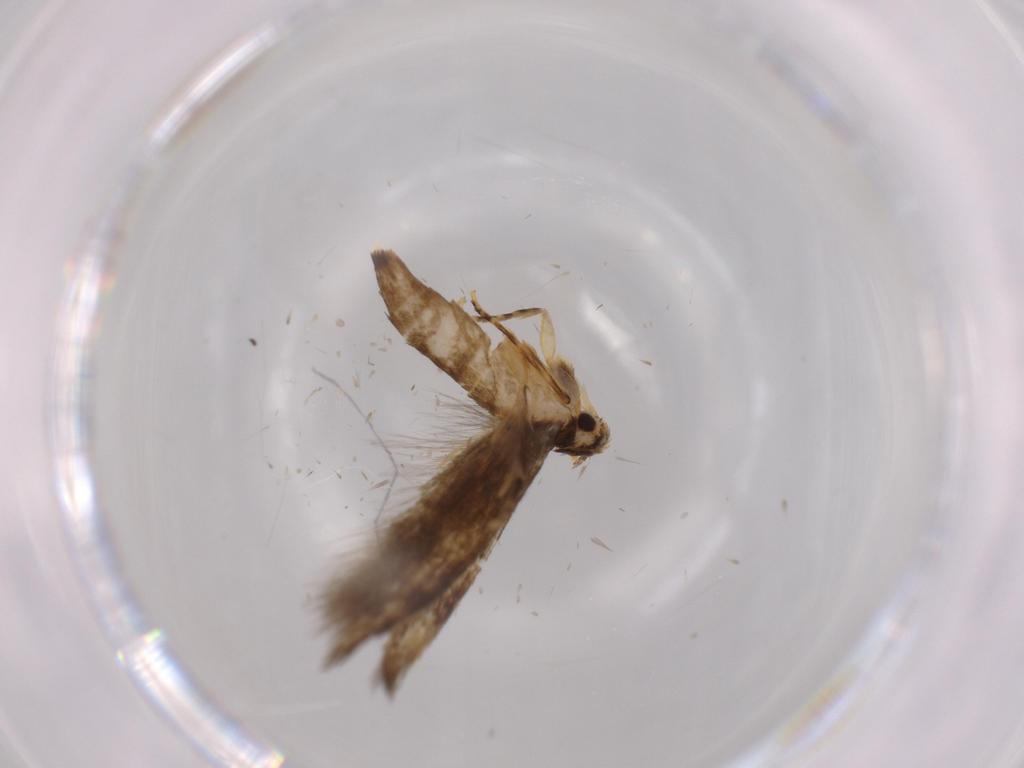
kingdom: Animalia
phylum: Arthropoda
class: Insecta
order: Lepidoptera
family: Tineidae
